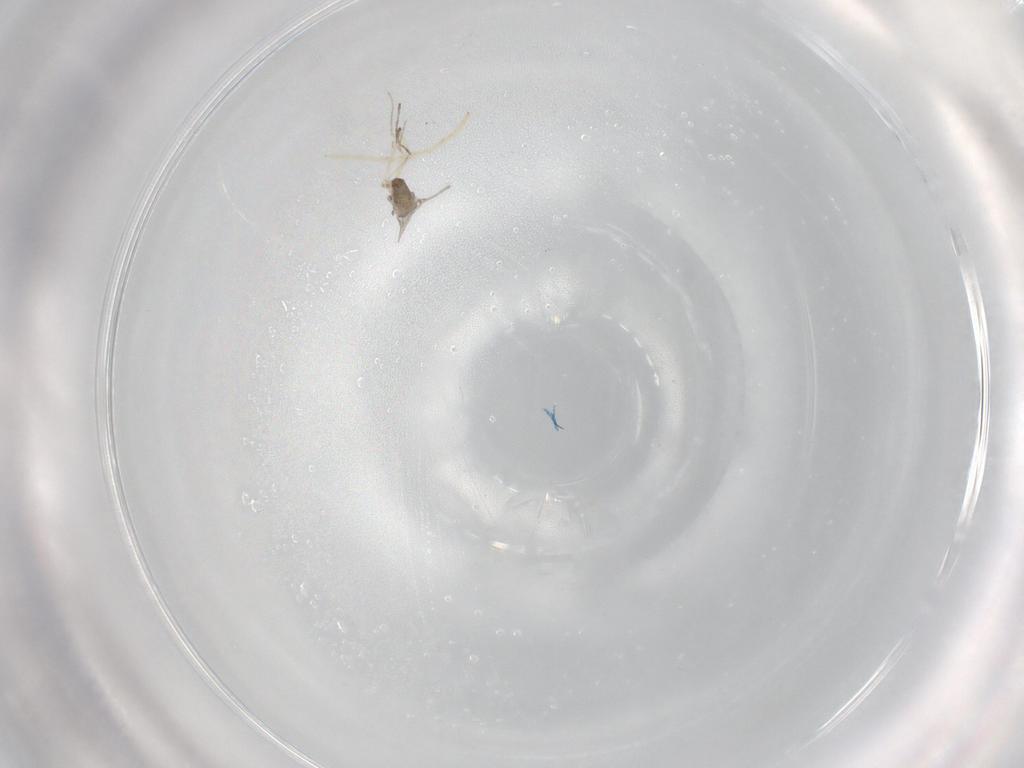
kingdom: Animalia
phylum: Arthropoda
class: Insecta
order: Diptera
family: Chironomidae
